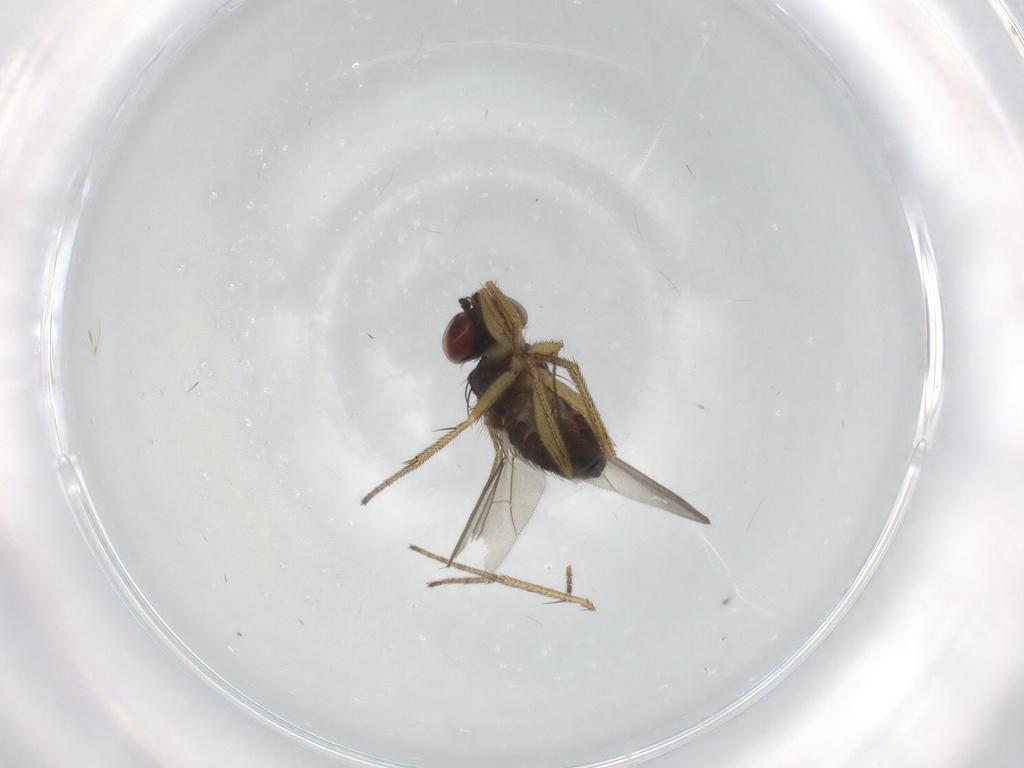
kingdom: Animalia
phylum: Arthropoda
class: Insecta
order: Diptera
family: Dolichopodidae
